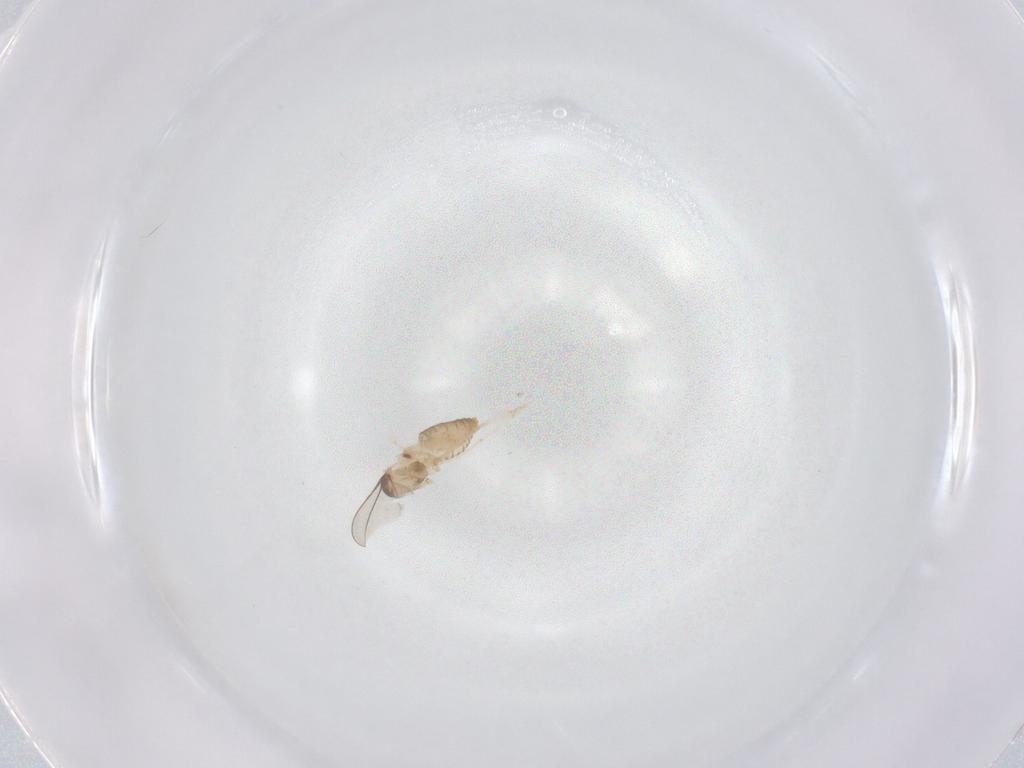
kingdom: Animalia
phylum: Arthropoda
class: Insecta
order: Diptera
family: Cecidomyiidae
